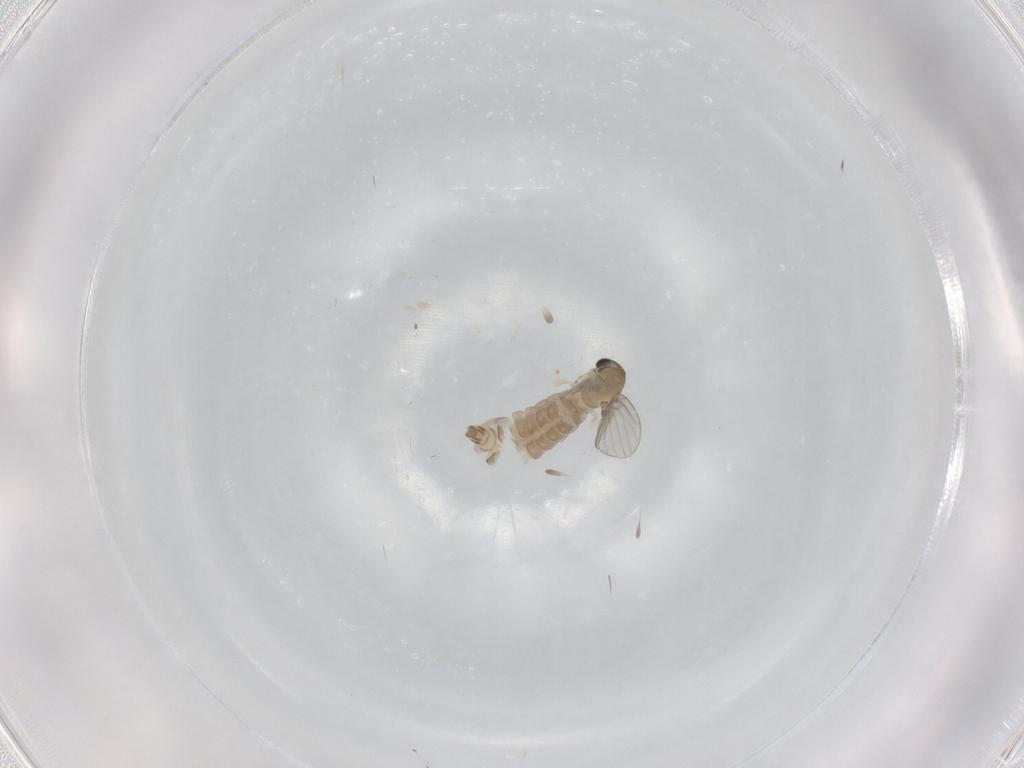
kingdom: Animalia
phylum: Arthropoda
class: Insecta
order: Diptera
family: Psychodidae
